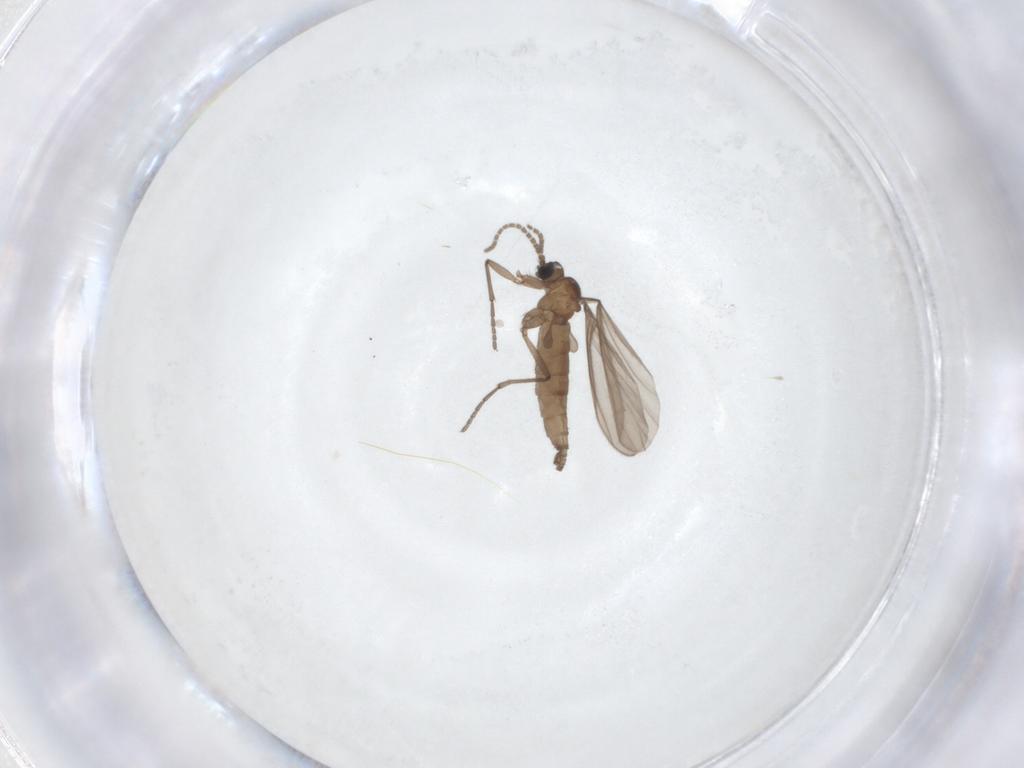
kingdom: Animalia
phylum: Arthropoda
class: Insecta
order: Diptera
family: Sciaridae
